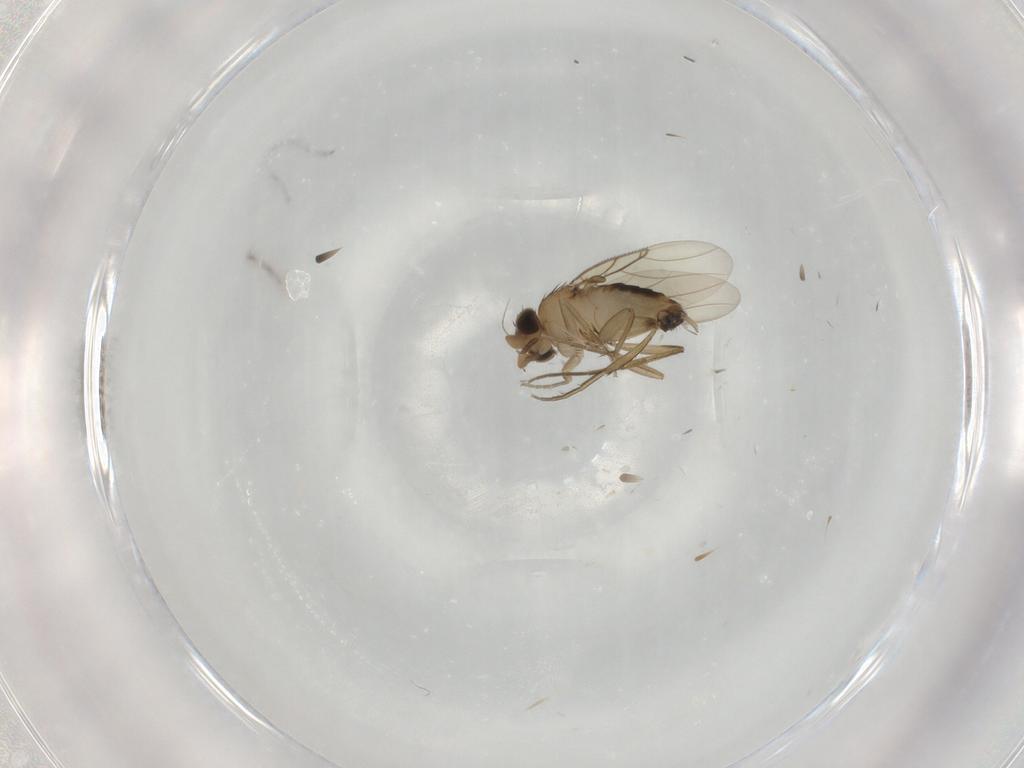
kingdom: Animalia
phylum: Arthropoda
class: Insecta
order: Diptera
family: Phoridae
